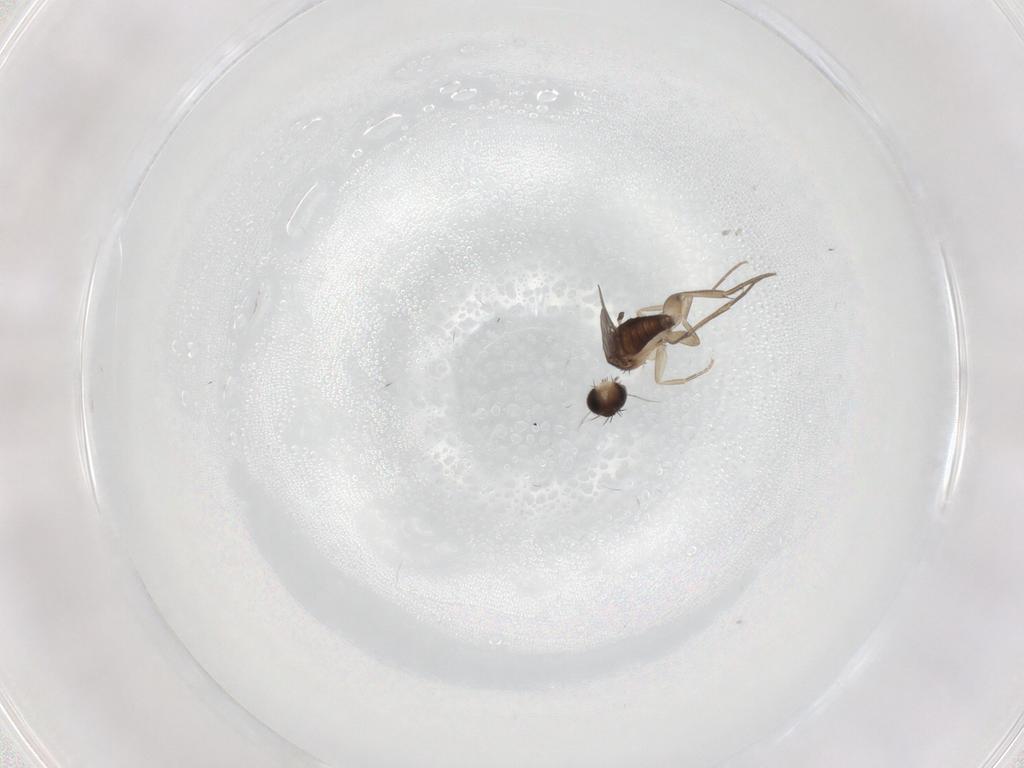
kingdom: Animalia
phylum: Arthropoda
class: Insecta
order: Diptera
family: Phoridae
